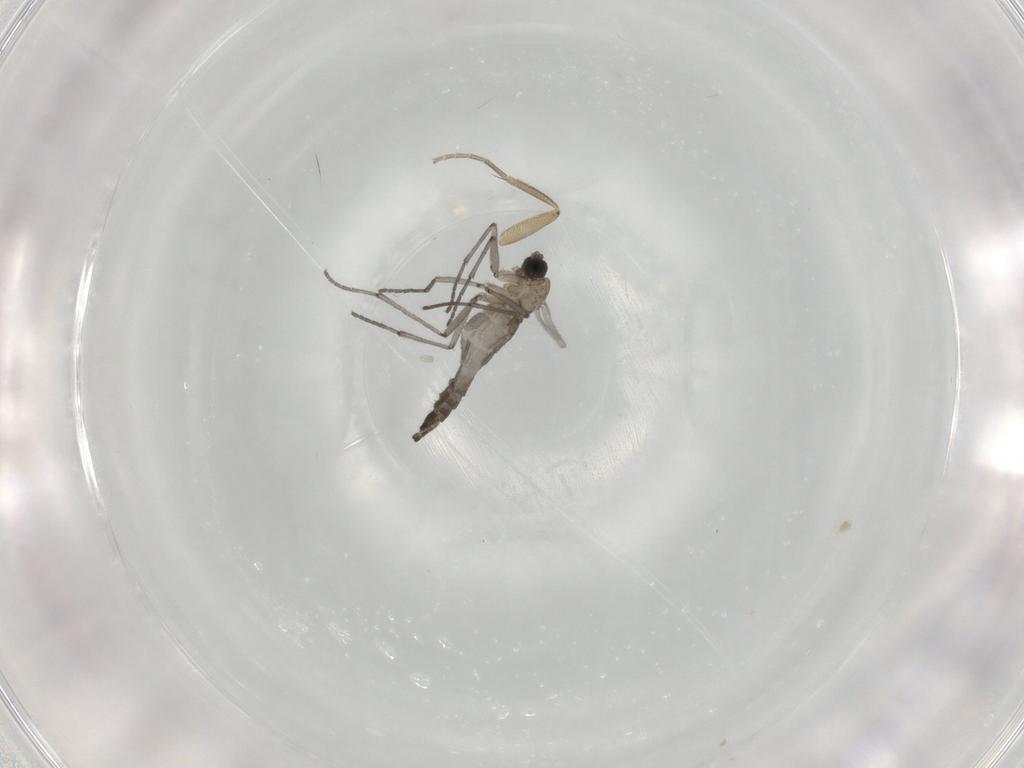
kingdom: Animalia
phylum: Arthropoda
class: Insecta
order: Diptera
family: Sciaridae
